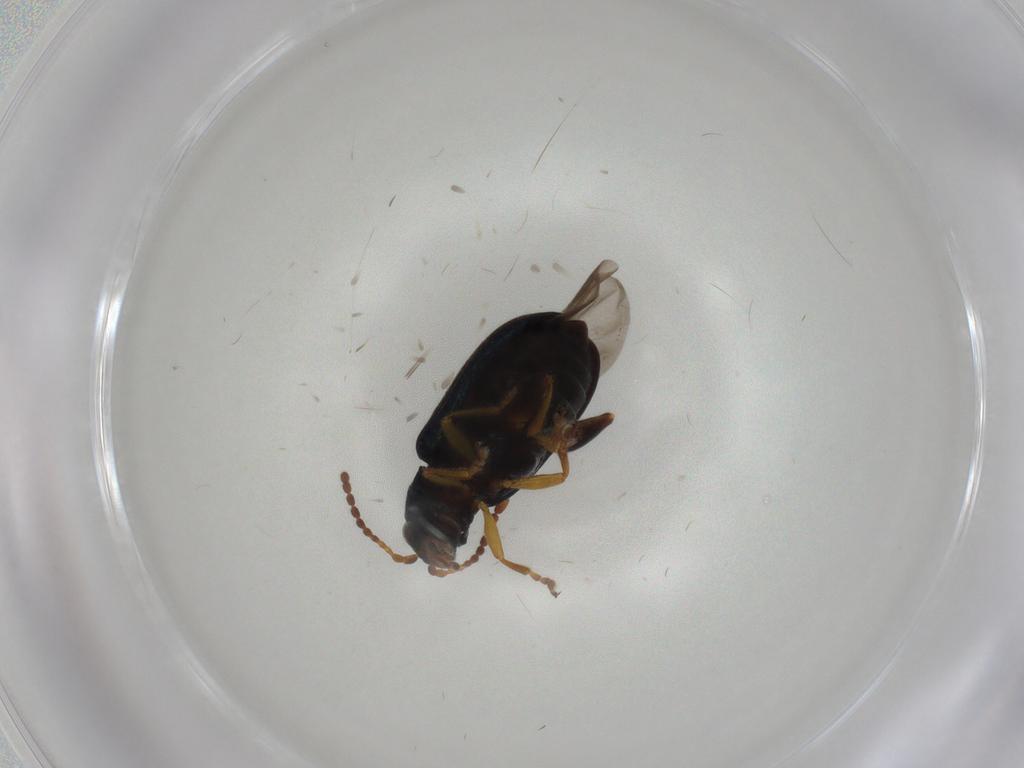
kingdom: Animalia
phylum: Arthropoda
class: Insecta
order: Coleoptera
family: Chrysomelidae
